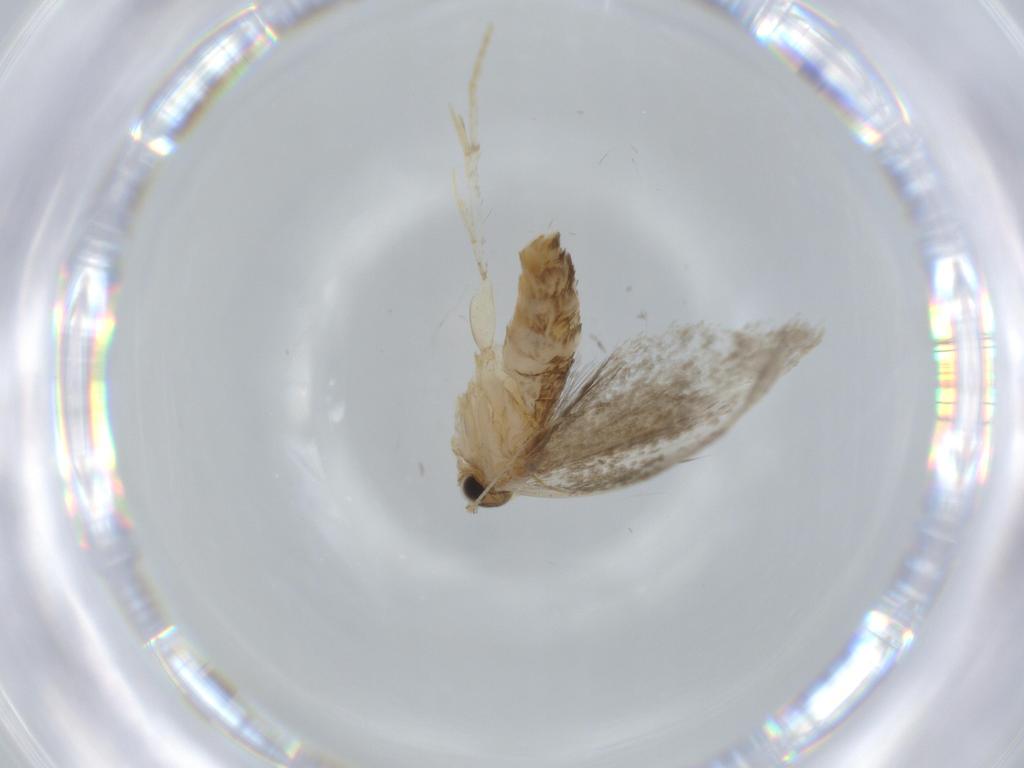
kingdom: Animalia
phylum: Arthropoda
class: Insecta
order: Lepidoptera
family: Tineidae
